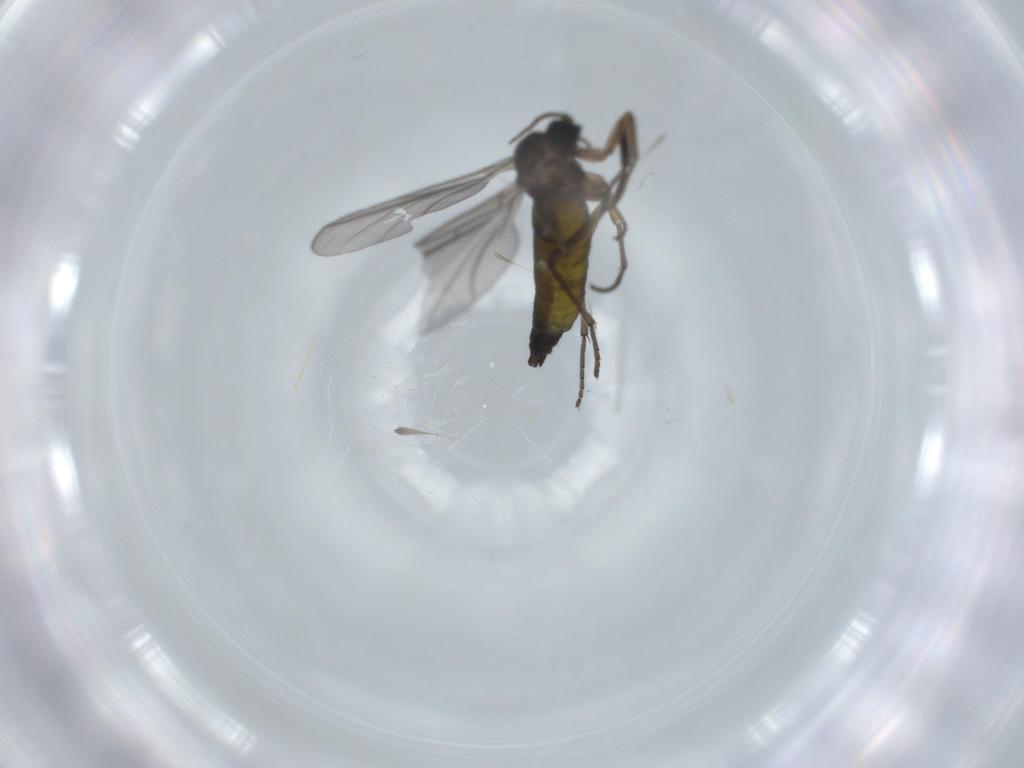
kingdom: Animalia
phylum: Arthropoda
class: Insecta
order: Diptera
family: Sciaridae
